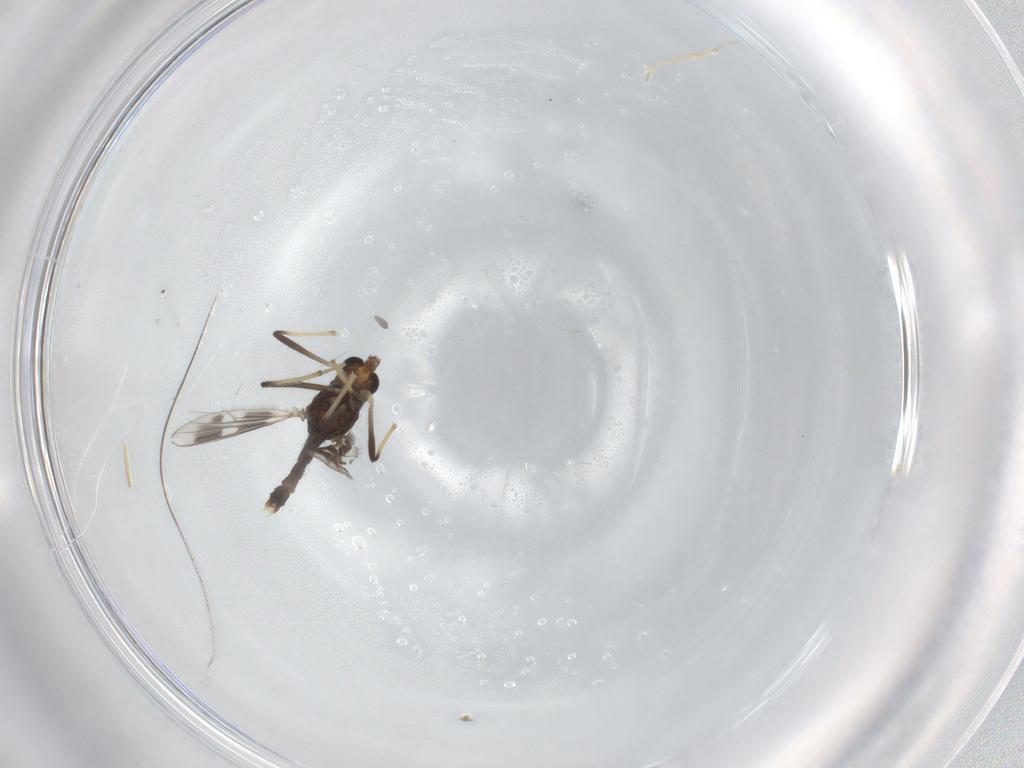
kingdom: Animalia
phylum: Arthropoda
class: Insecta
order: Diptera
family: Chironomidae
